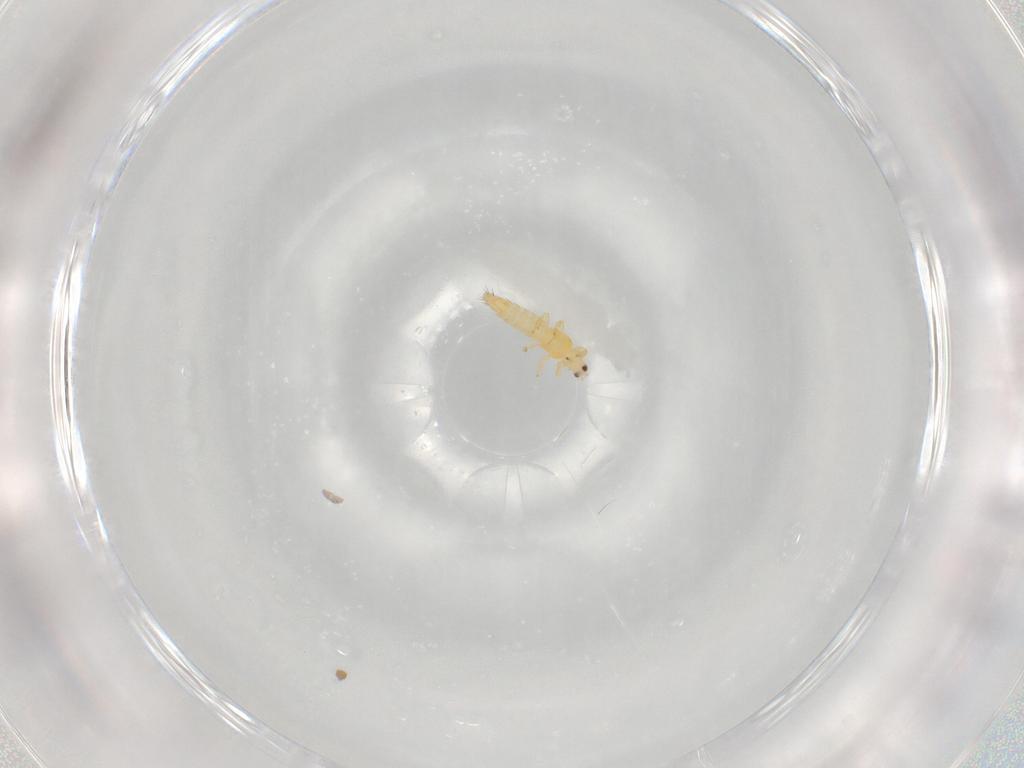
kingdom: Animalia
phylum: Arthropoda
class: Insecta
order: Thysanoptera
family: Thripidae
